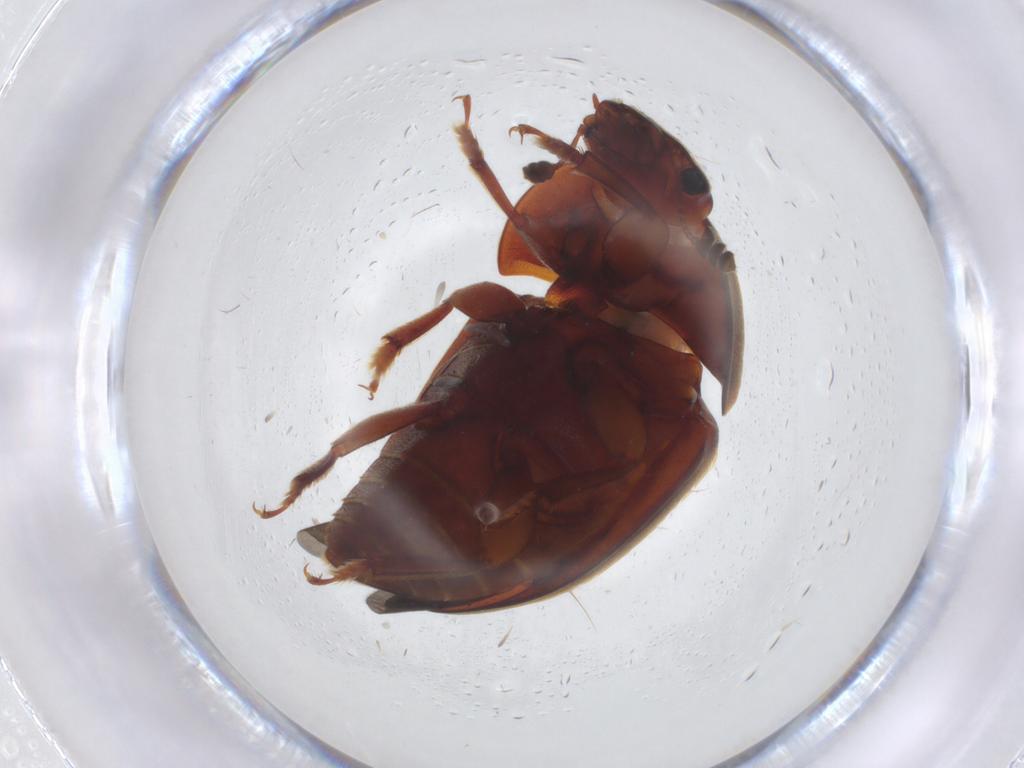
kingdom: Animalia
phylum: Arthropoda
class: Insecta
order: Coleoptera
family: Nitidulidae
